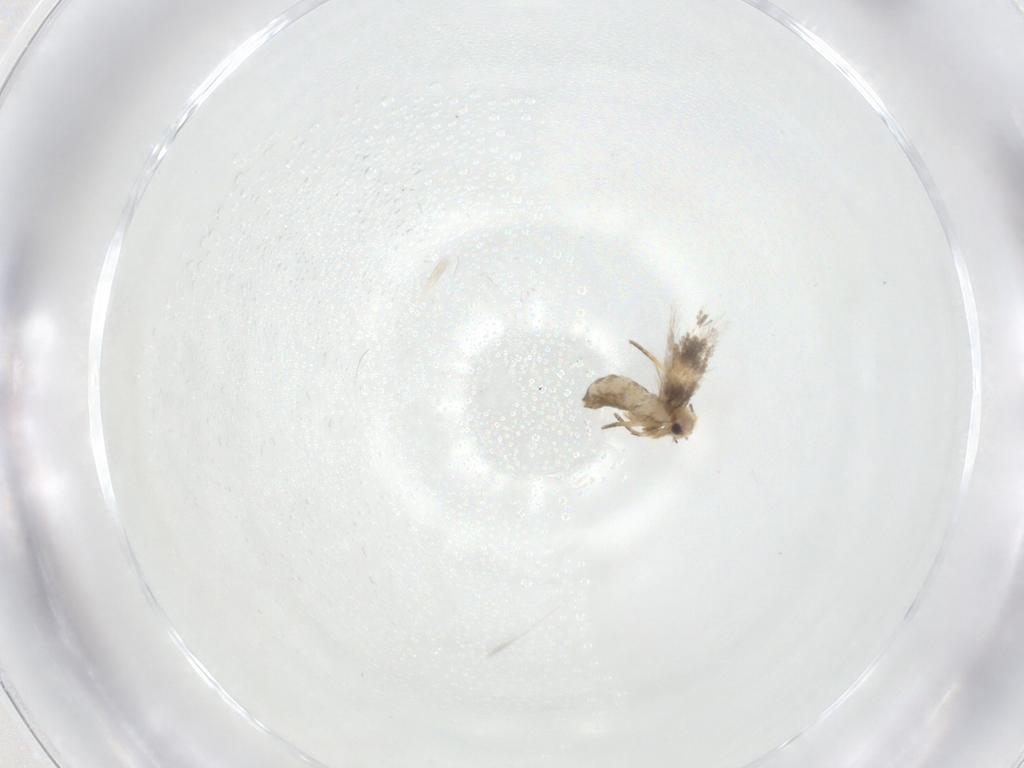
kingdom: Animalia
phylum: Arthropoda
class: Insecta
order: Lepidoptera
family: Nepticulidae
